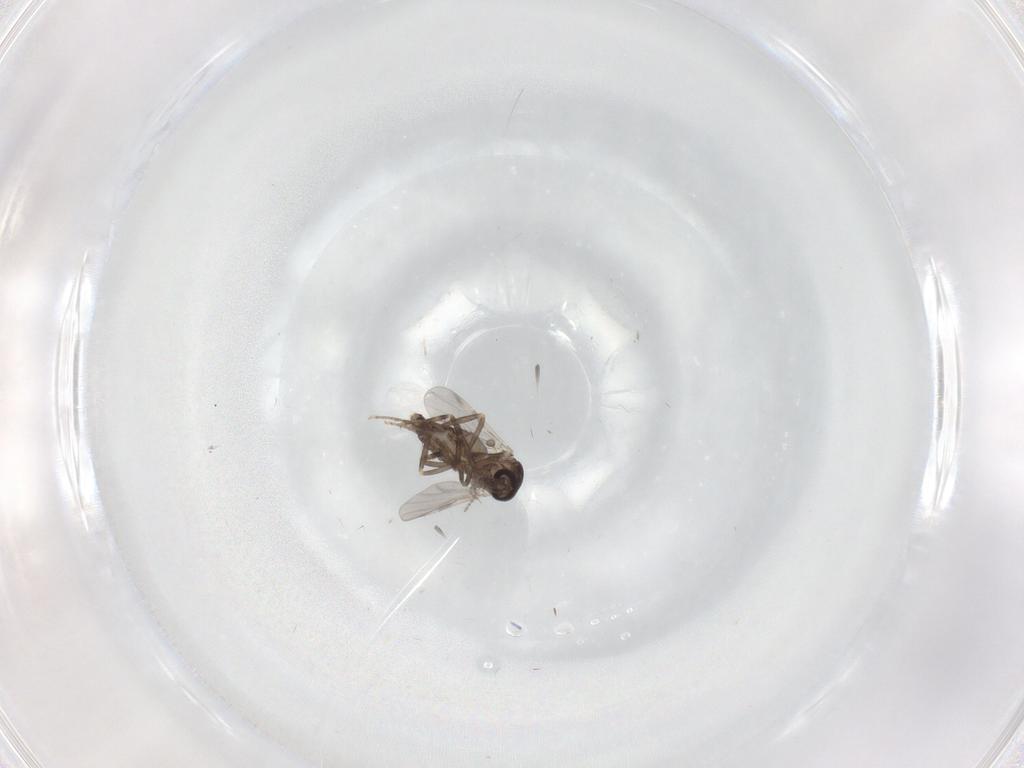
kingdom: Animalia
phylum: Arthropoda
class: Insecta
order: Diptera
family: Ceratopogonidae
